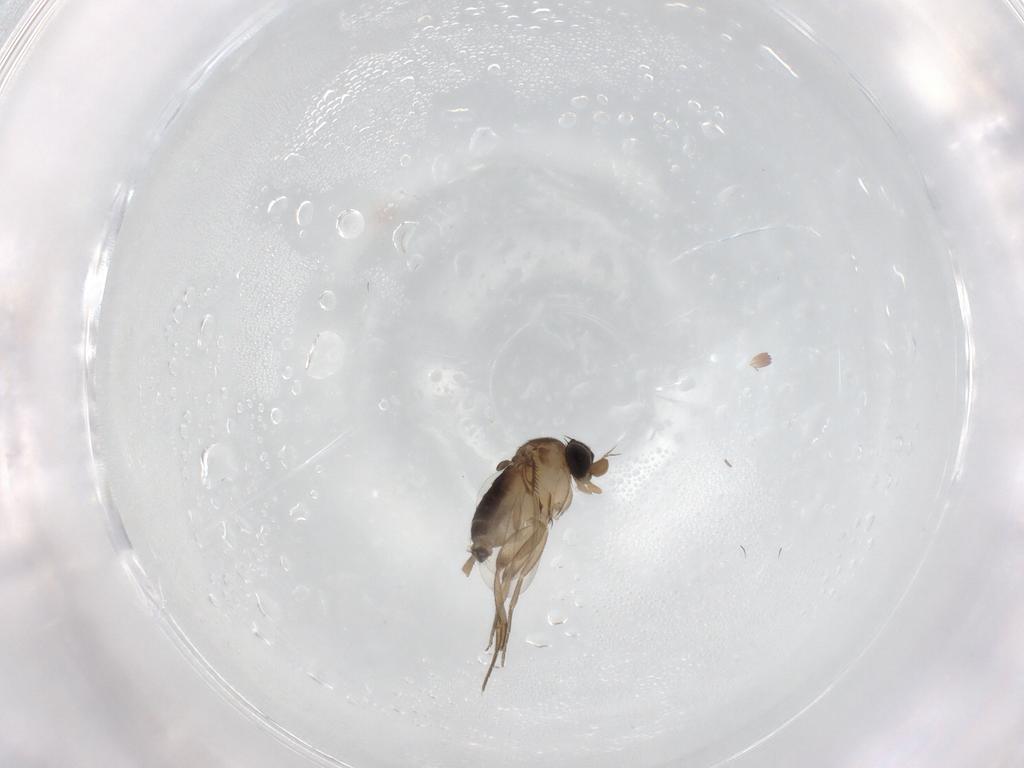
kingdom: Animalia
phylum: Arthropoda
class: Insecta
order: Diptera
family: Phoridae
